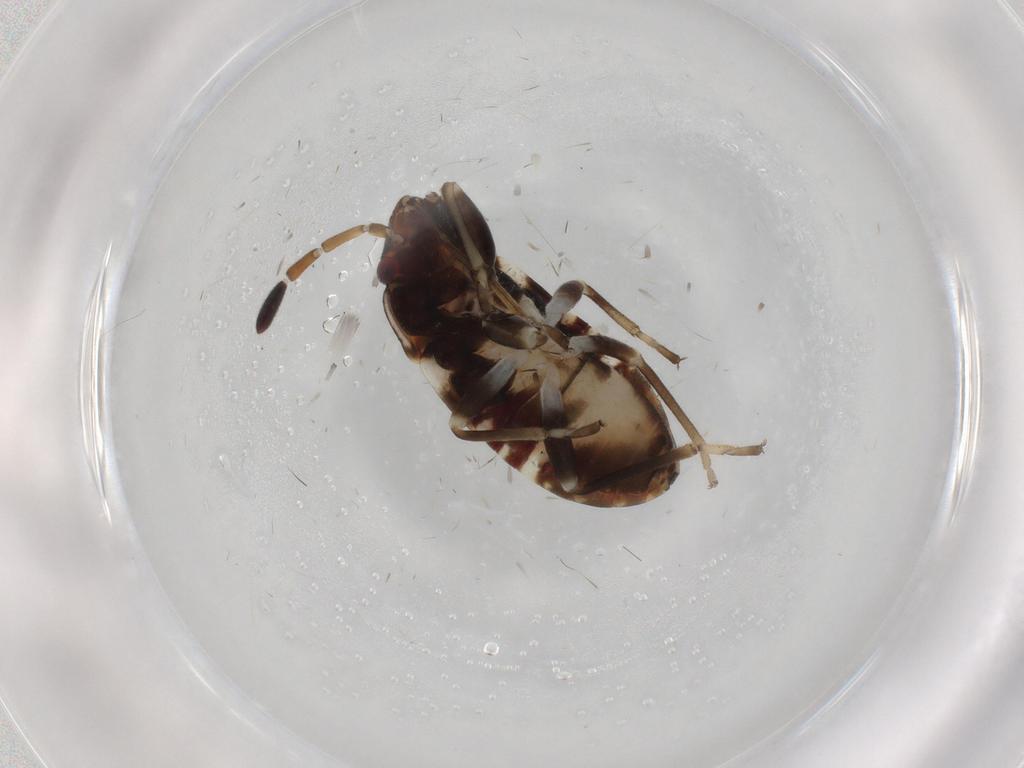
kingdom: Animalia
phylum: Arthropoda
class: Insecta
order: Hemiptera
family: Rhyparochromidae
